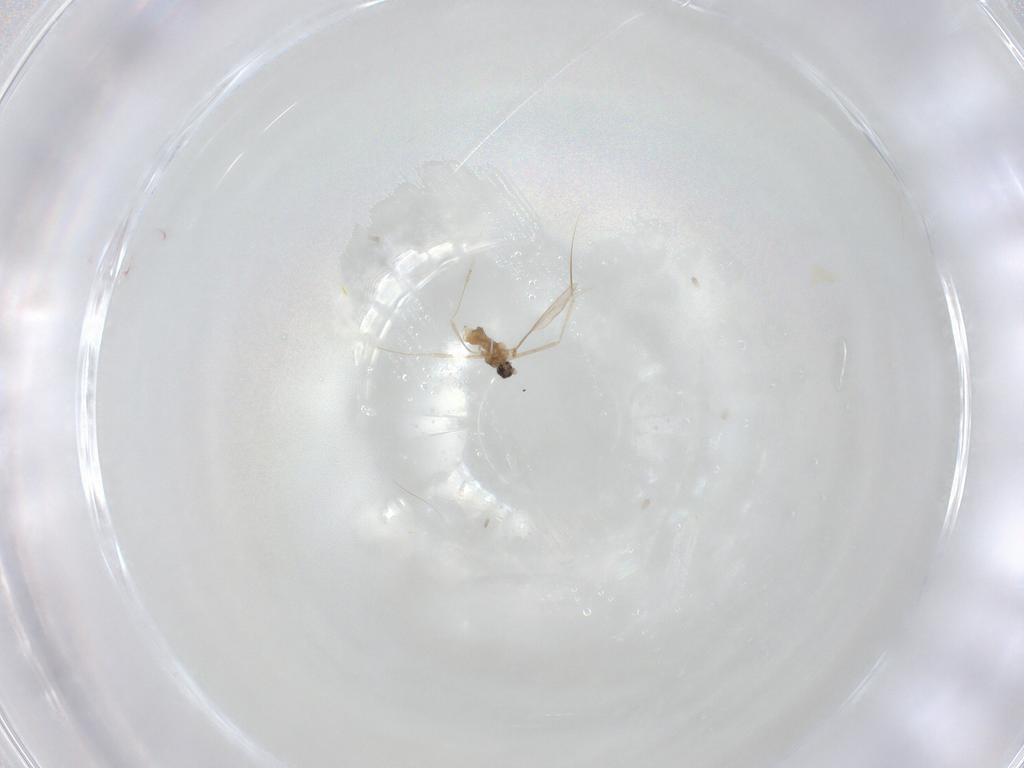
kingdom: Animalia
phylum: Arthropoda
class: Insecta
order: Diptera
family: Cecidomyiidae
